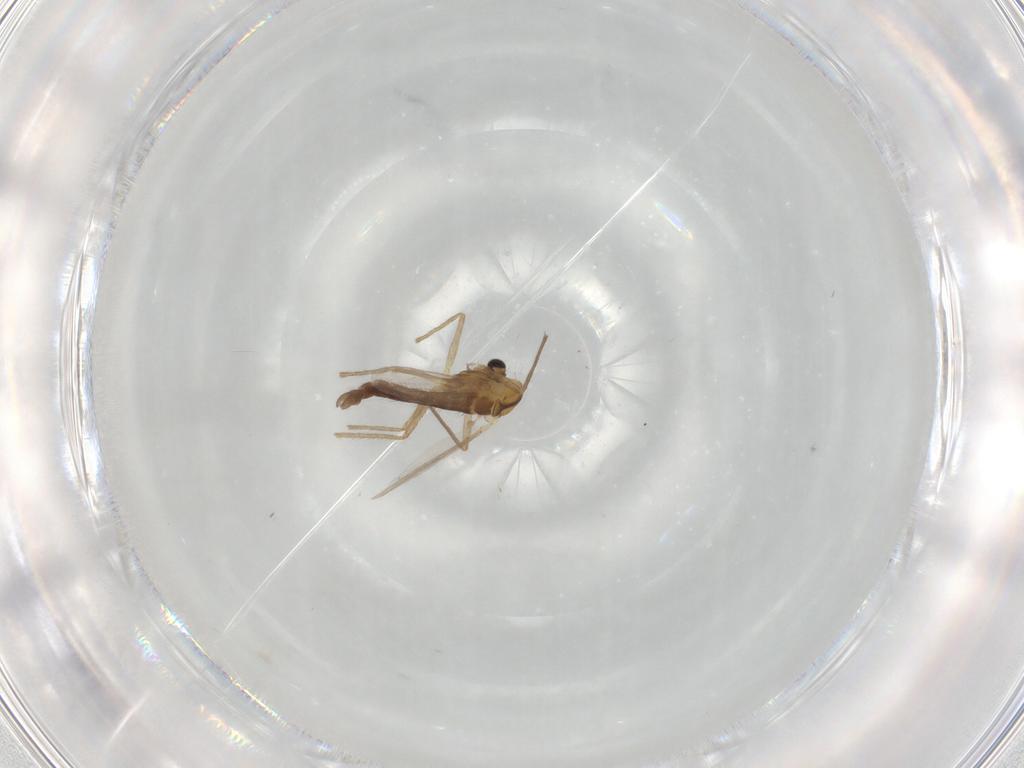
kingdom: Animalia
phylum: Arthropoda
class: Insecta
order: Diptera
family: Chironomidae
